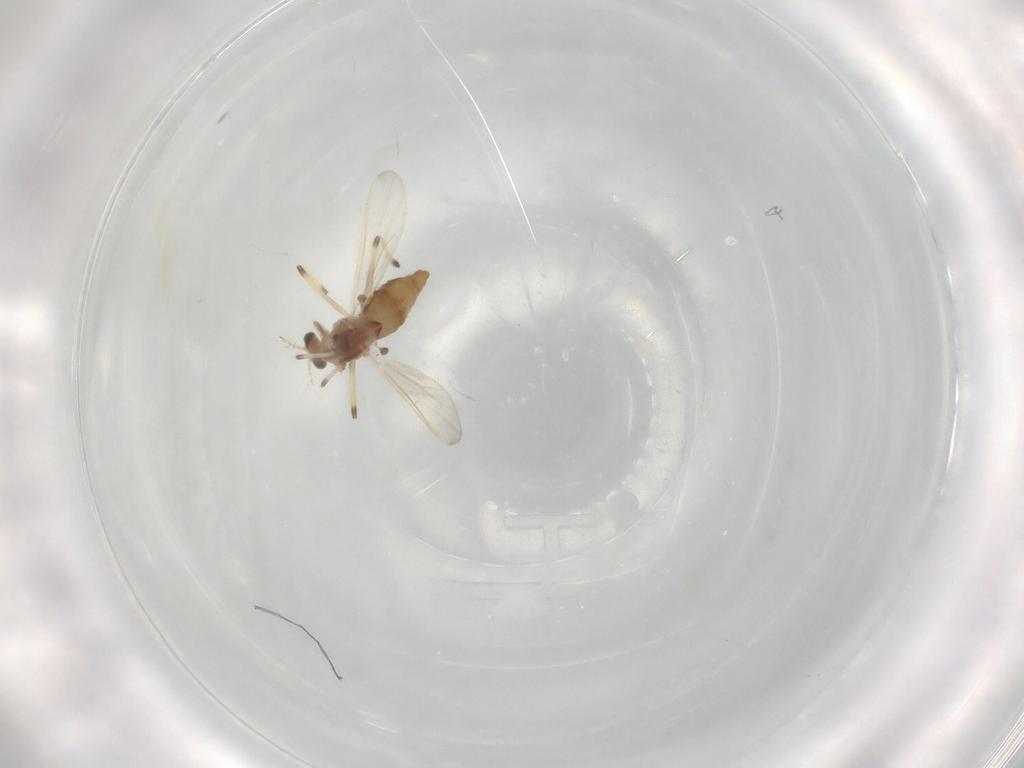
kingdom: Animalia
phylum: Arthropoda
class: Insecta
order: Diptera
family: Chironomidae
